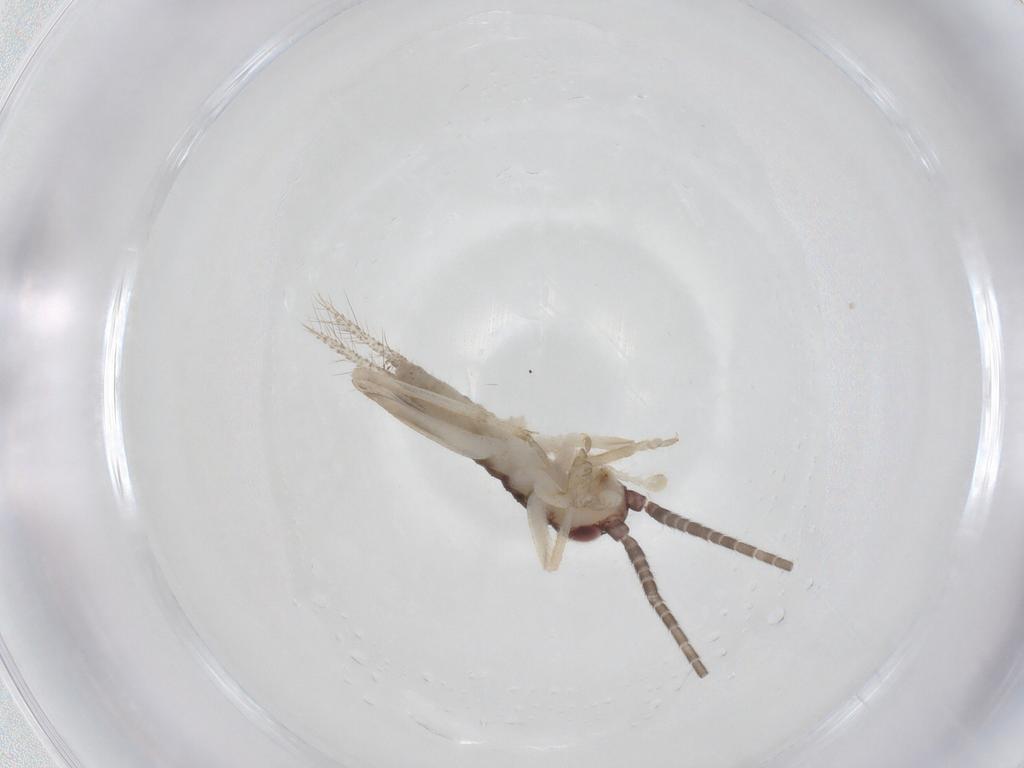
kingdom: Animalia
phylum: Arthropoda
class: Insecta
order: Orthoptera
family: Gryllidae
